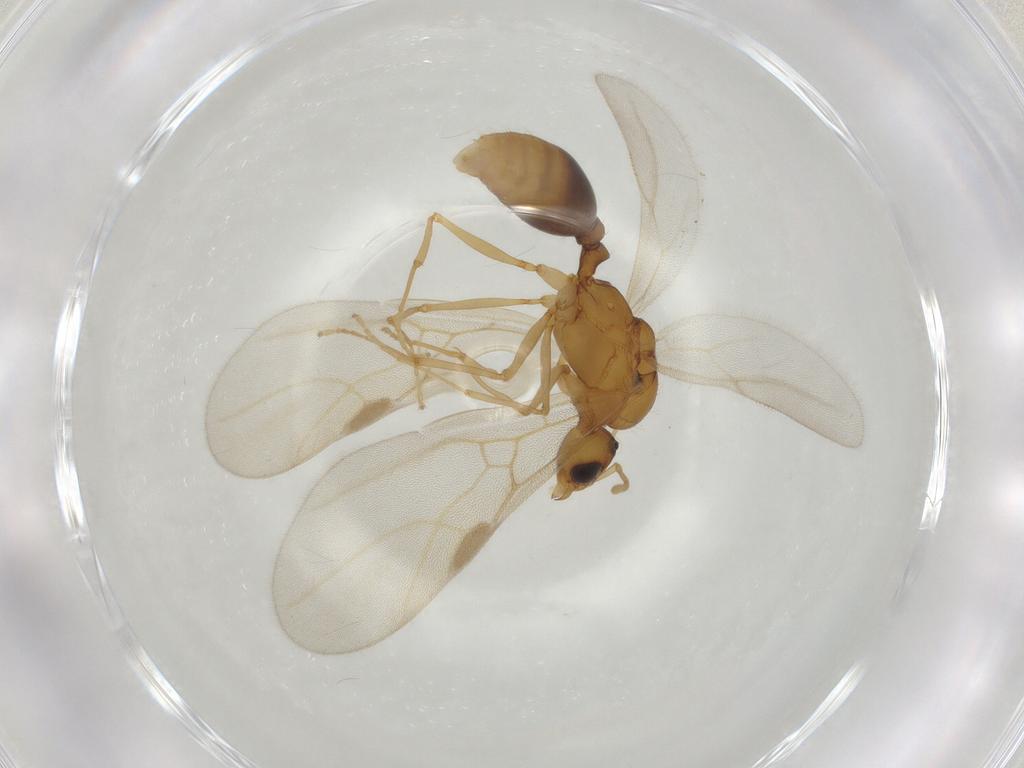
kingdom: Animalia
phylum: Arthropoda
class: Insecta
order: Hymenoptera
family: Formicidae
